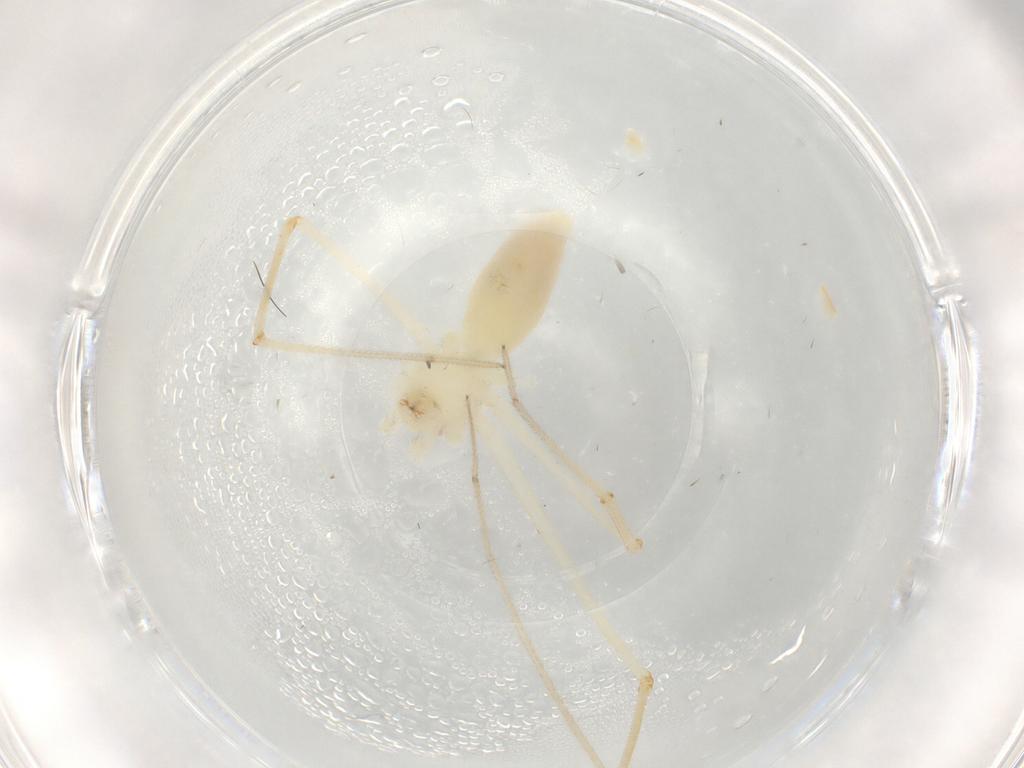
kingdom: Animalia
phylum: Arthropoda
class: Arachnida
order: Araneae
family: Pholcidae
